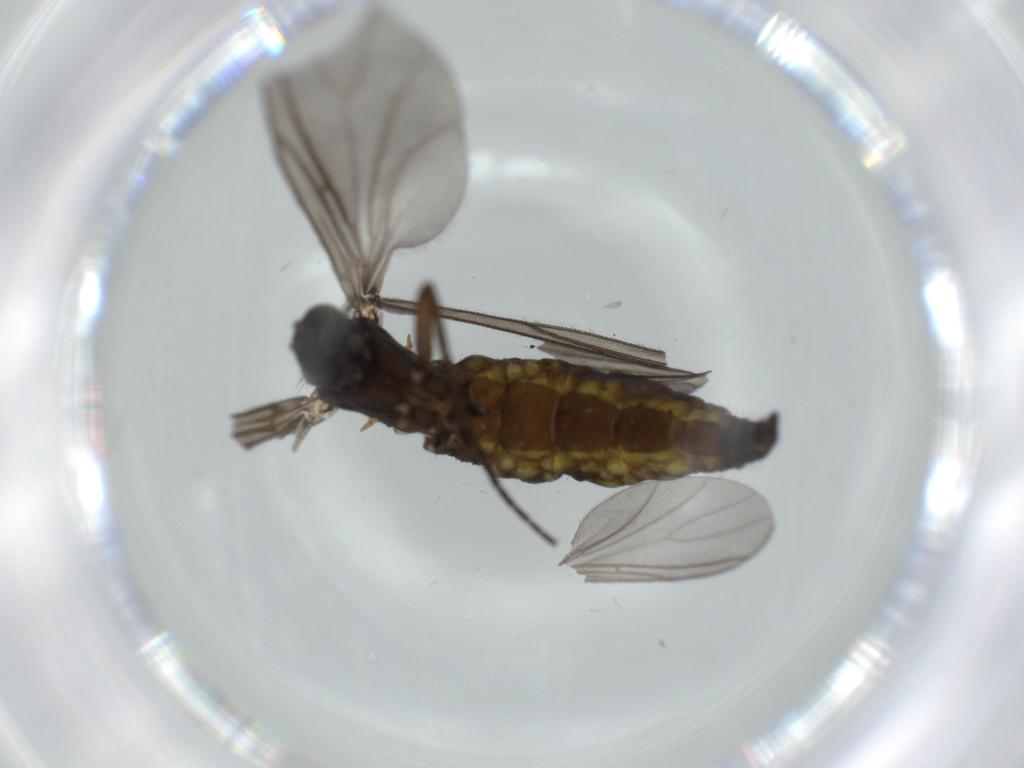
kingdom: Animalia
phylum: Arthropoda
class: Insecta
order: Diptera
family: Sciaridae
